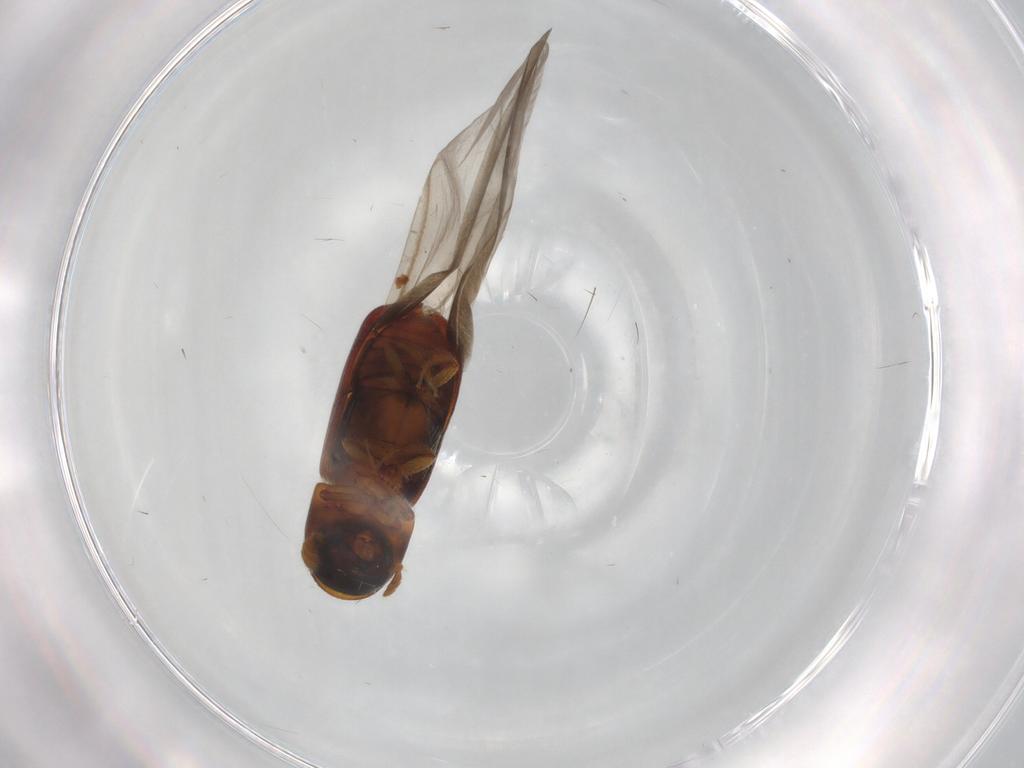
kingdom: Animalia
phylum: Arthropoda
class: Insecta
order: Coleoptera
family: Curculionidae
